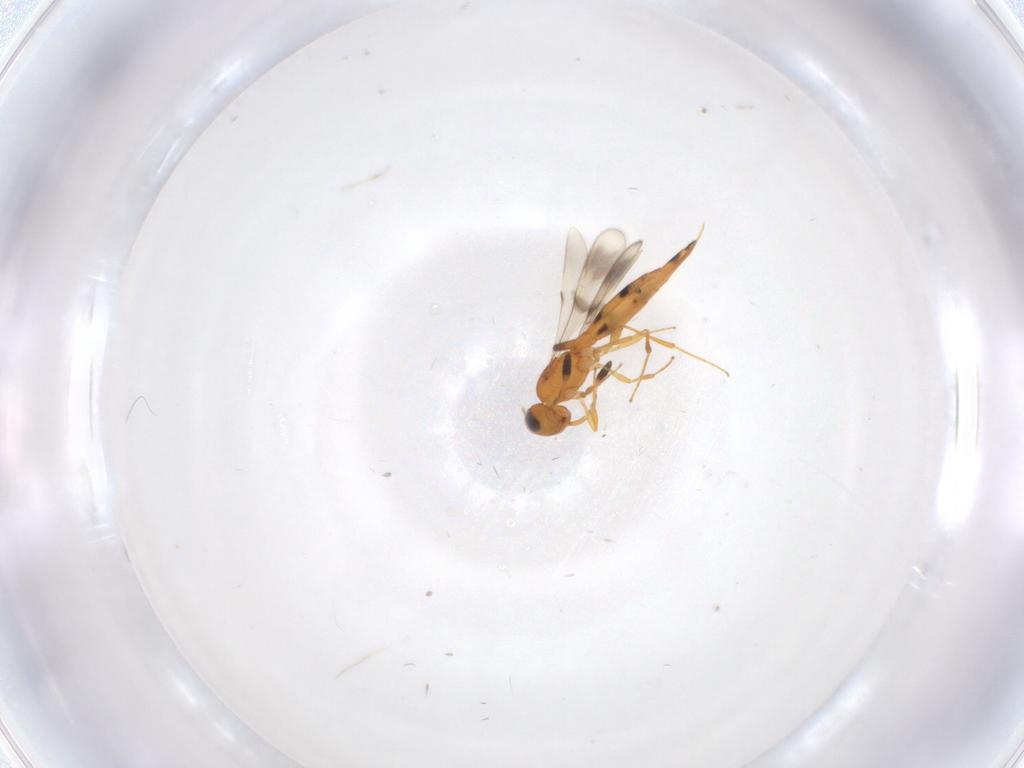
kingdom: Animalia
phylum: Arthropoda
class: Insecta
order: Hymenoptera
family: Scelionidae
